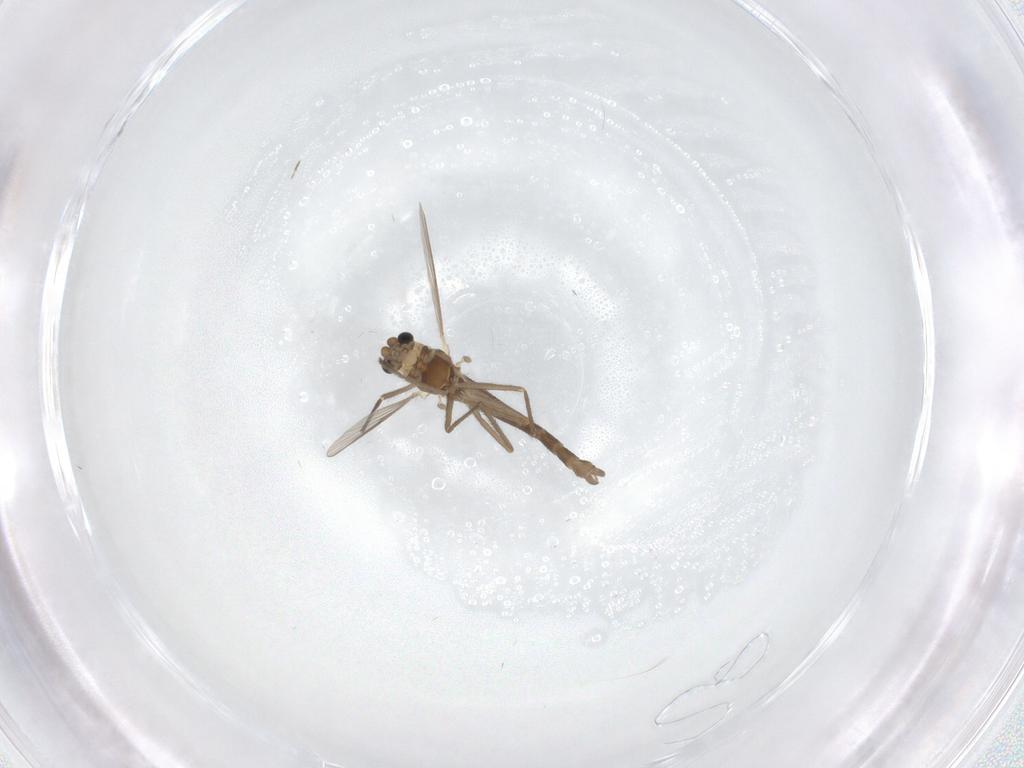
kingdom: Animalia
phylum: Arthropoda
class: Insecta
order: Diptera
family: Chironomidae
